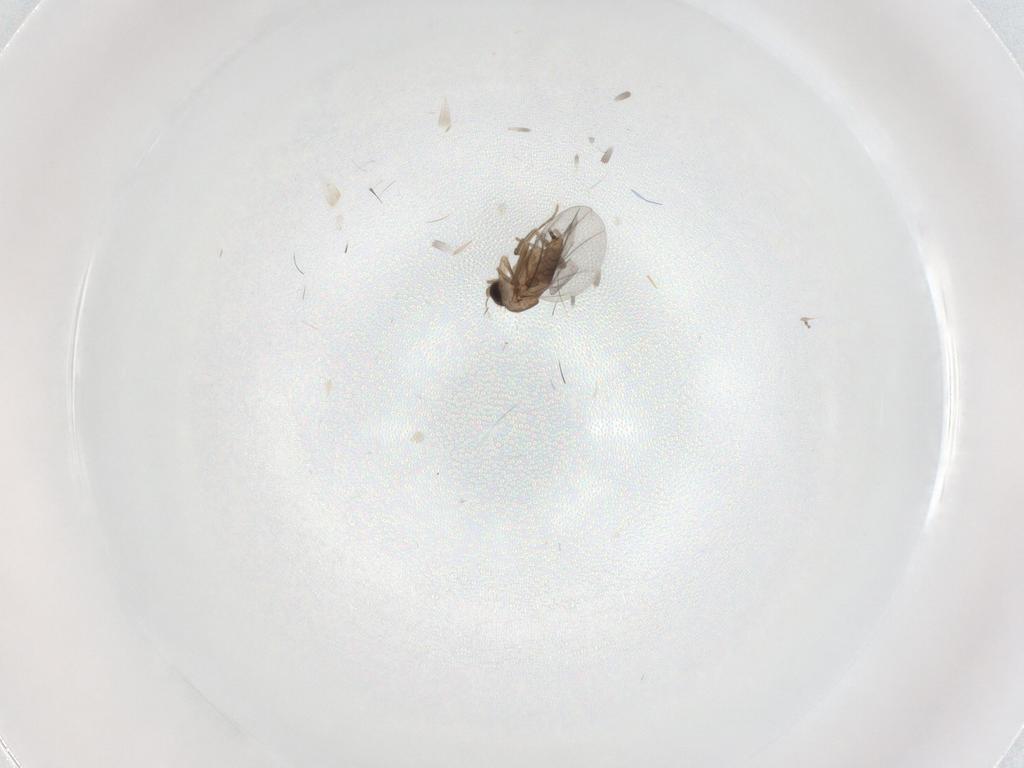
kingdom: Animalia
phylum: Arthropoda
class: Insecta
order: Diptera
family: Cecidomyiidae
